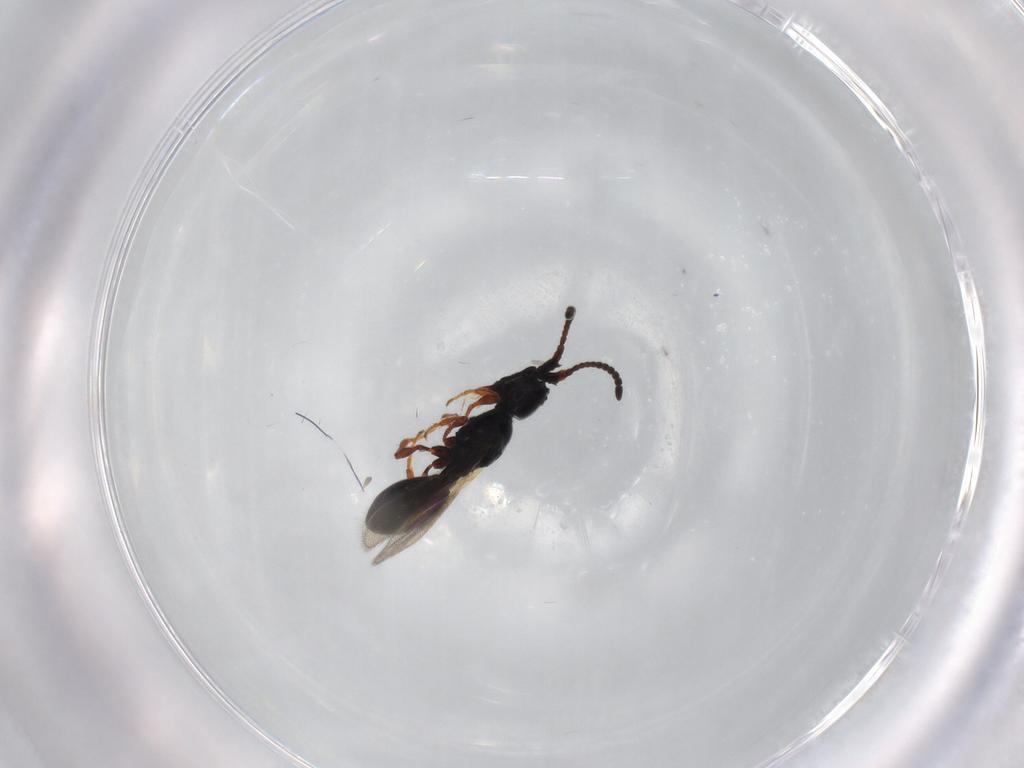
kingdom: Animalia
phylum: Arthropoda
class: Insecta
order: Hymenoptera
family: Diapriidae
